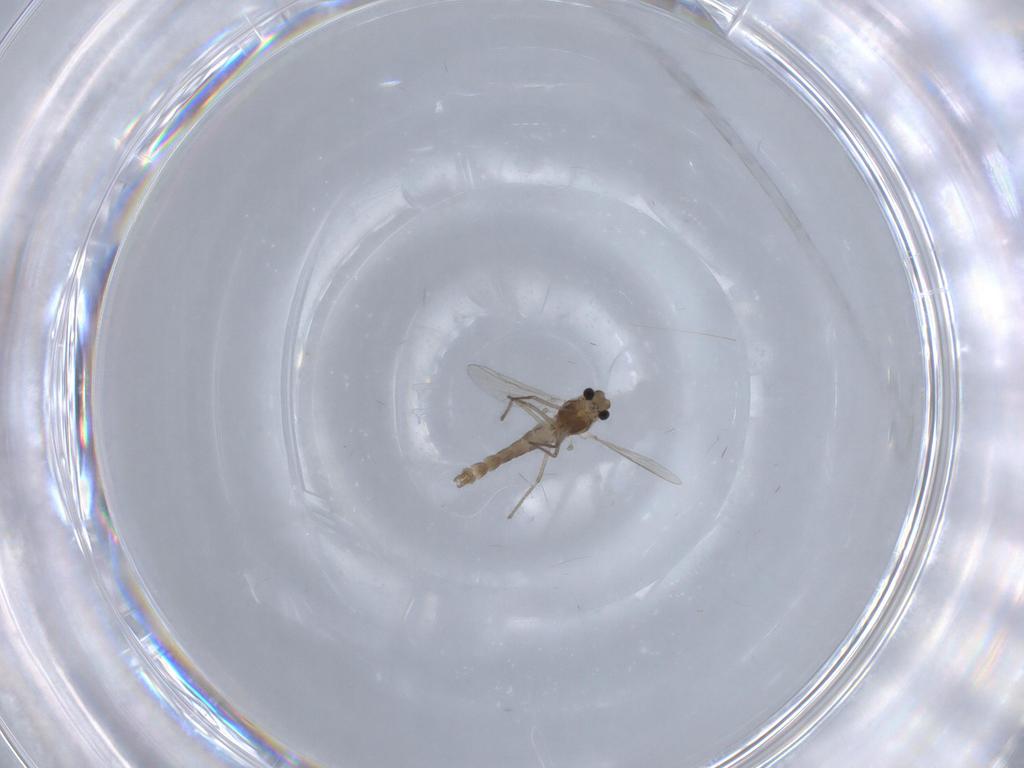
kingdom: Animalia
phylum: Arthropoda
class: Insecta
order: Diptera
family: Chironomidae
